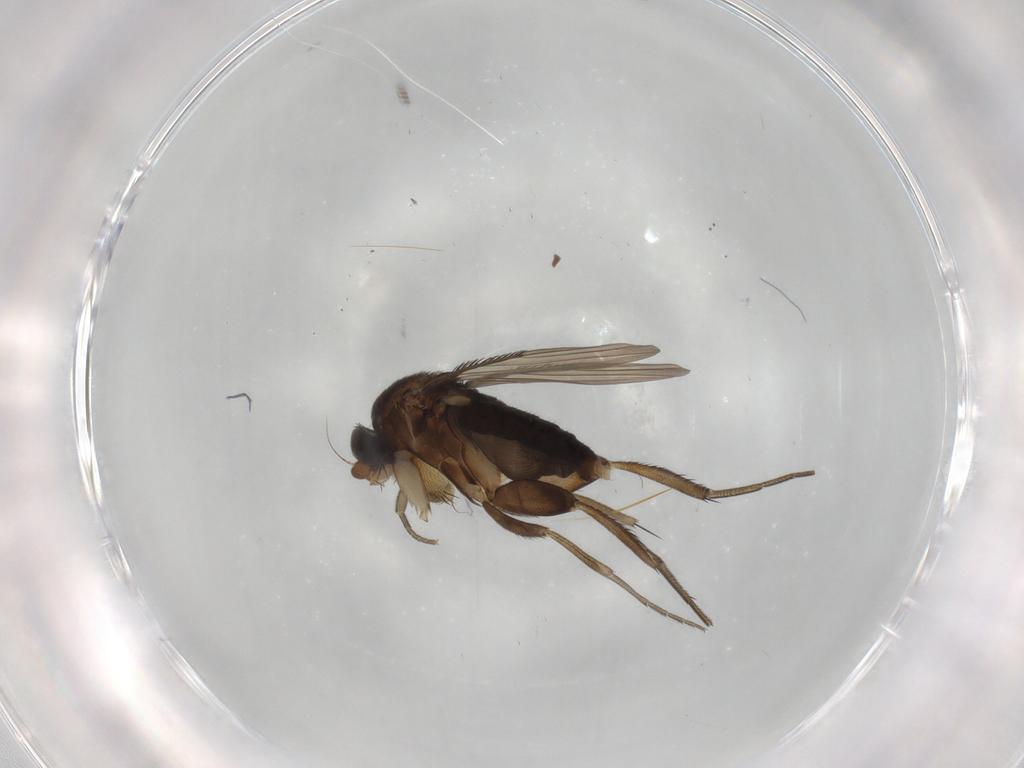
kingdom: Animalia
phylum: Arthropoda
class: Insecta
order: Diptera
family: Phoridae
